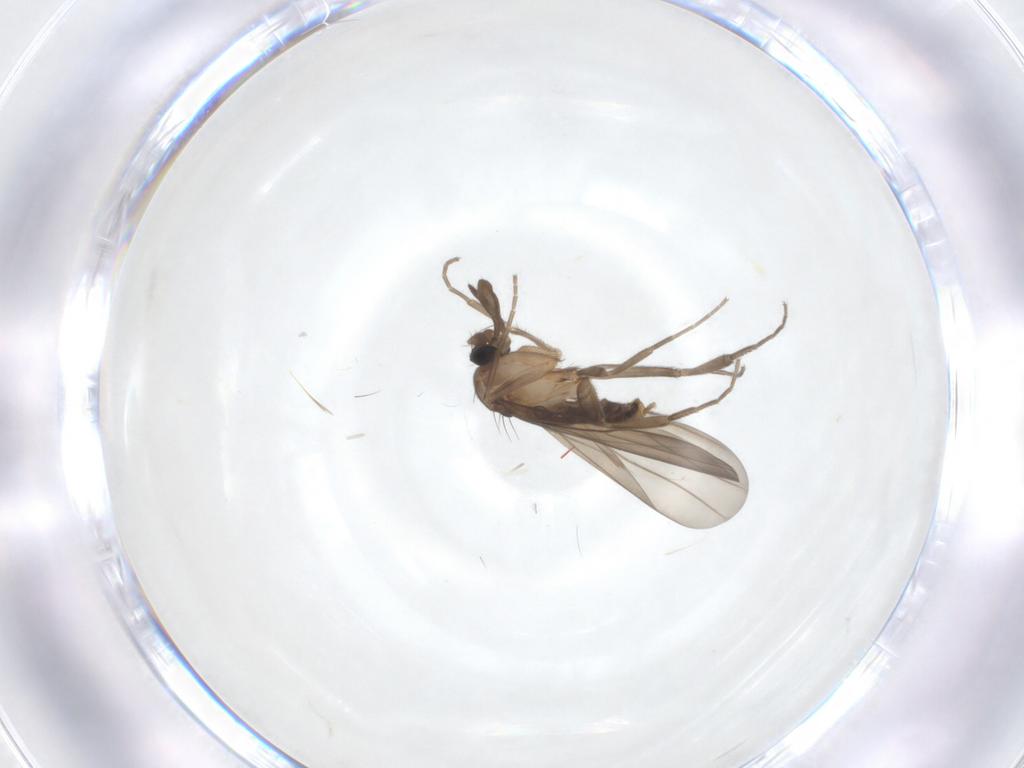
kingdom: Animalia
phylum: Arthropoda
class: Insecta
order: Diptera
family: Phoridae
